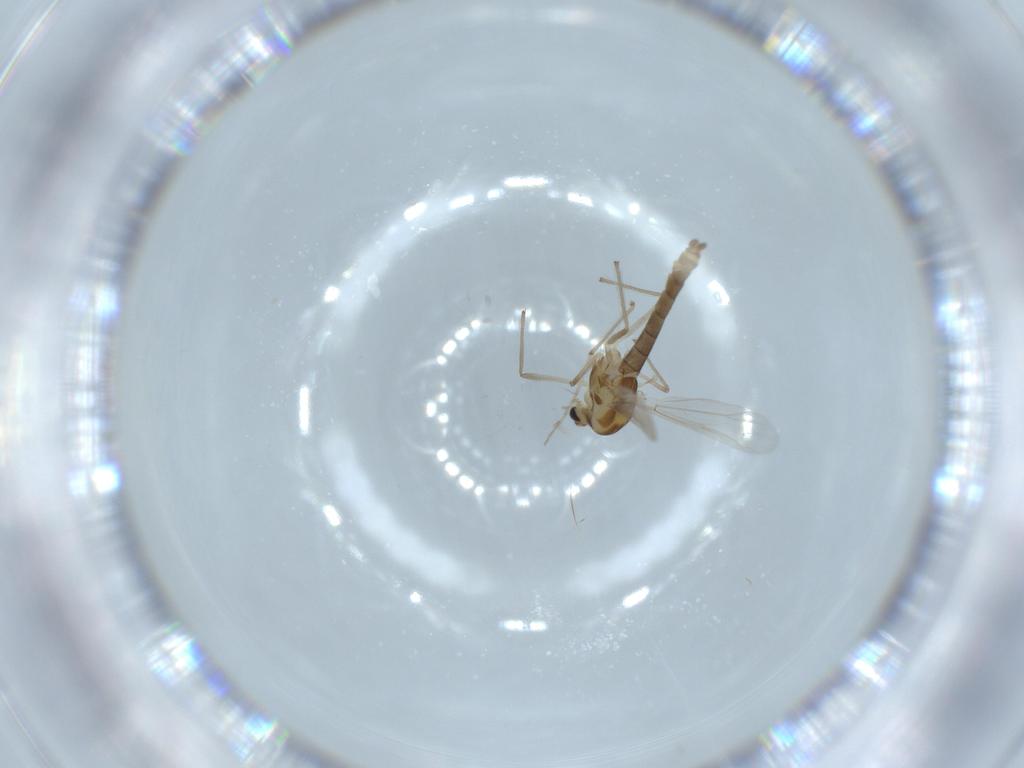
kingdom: Animalia
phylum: Arthropoda
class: Insecta
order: Diptera
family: Chironomidae
